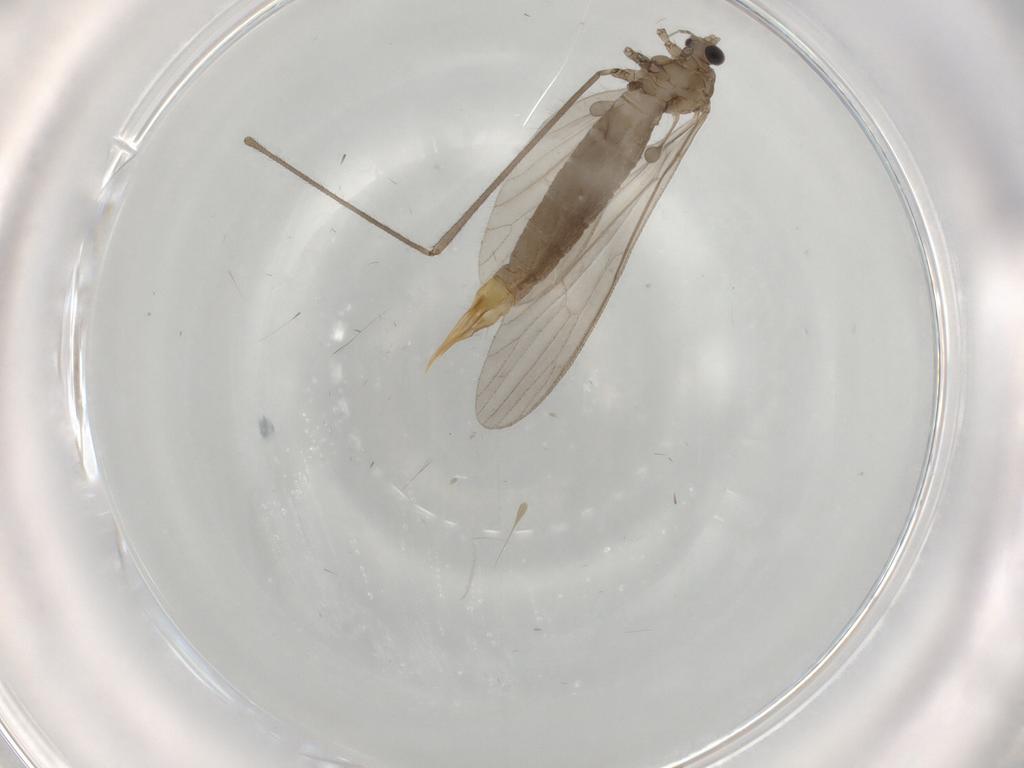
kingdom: Animalia
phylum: Arthropoda
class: Insecta
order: Diptera
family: Limoniidae
